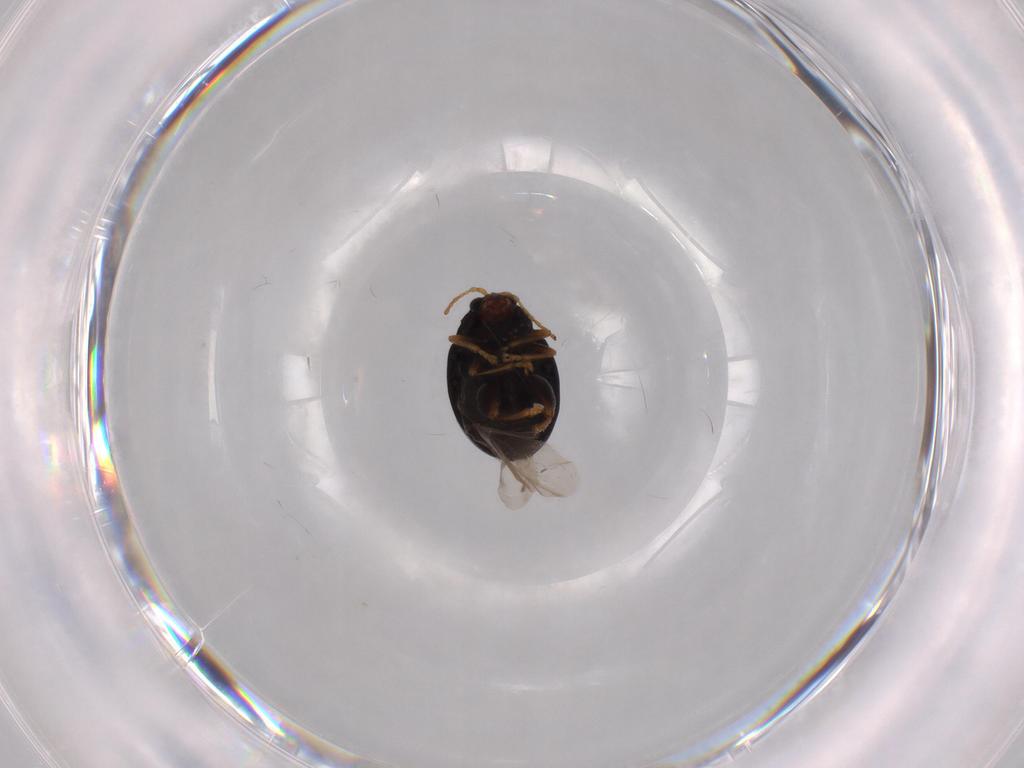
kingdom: Animalia
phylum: Arthropoda
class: Insecta
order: Coleoptera
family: Chrysomelidae
